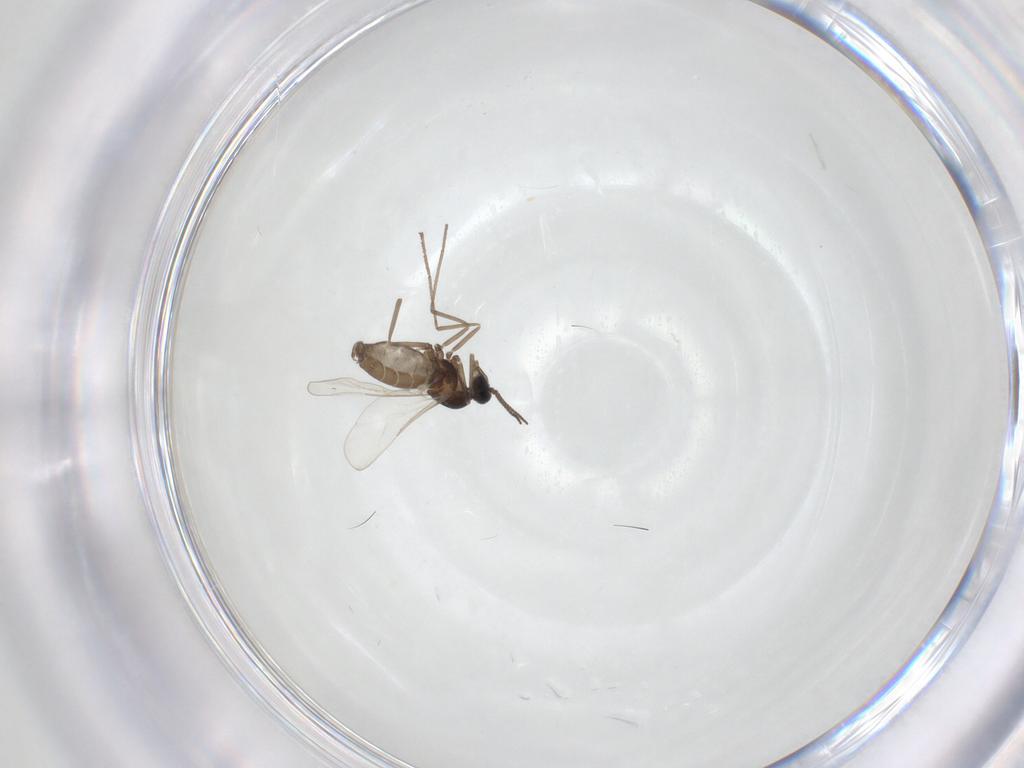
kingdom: Animalia
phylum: Arthropoda
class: Insecta
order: Diptera
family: Cecidomyiidae
